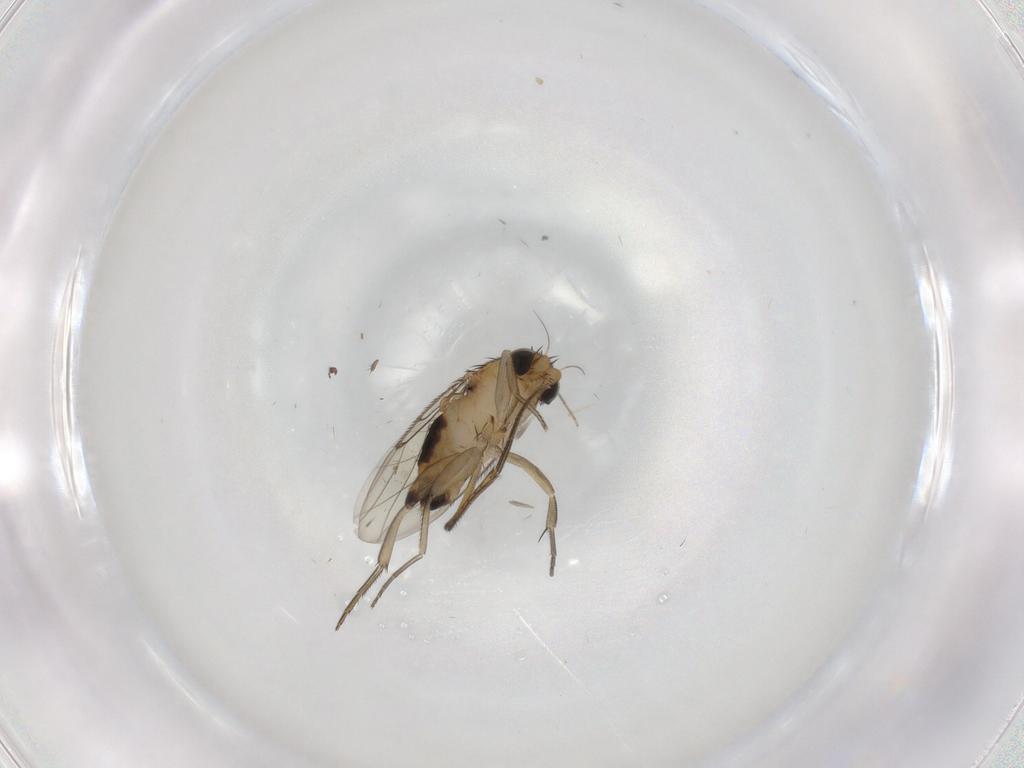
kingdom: Animalia
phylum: Arthropoda
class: Insecta
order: Diptera
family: Phoridae
